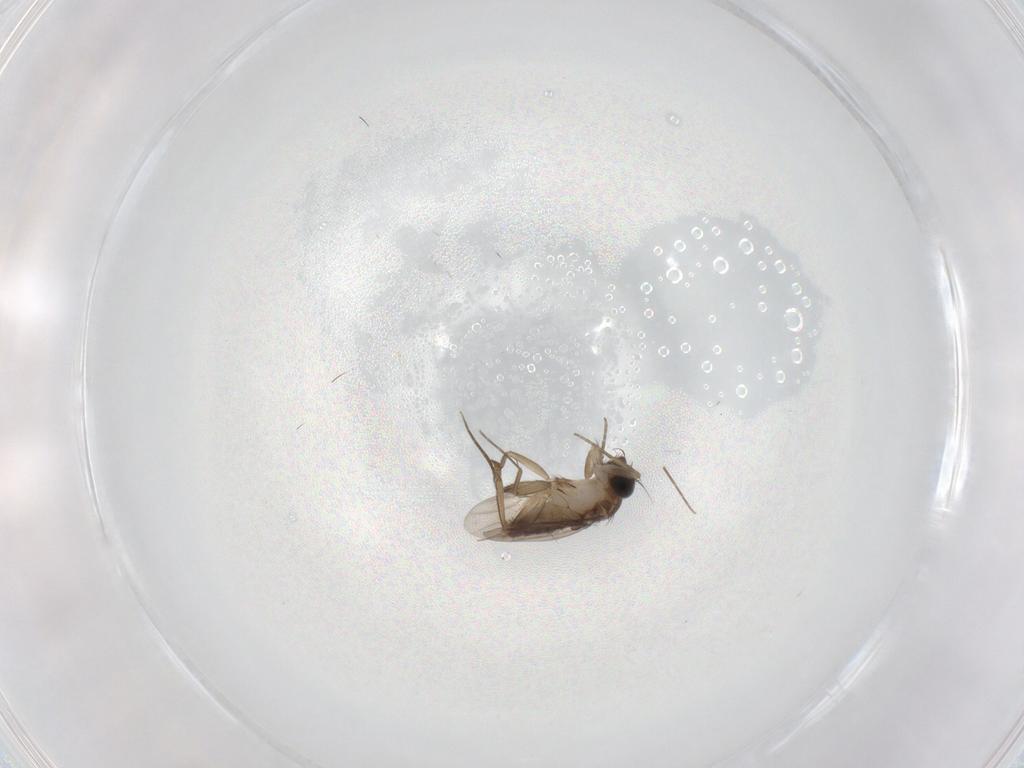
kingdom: Animalia
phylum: Arthropoda
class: Insecta
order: Diptera
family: Phoridae
